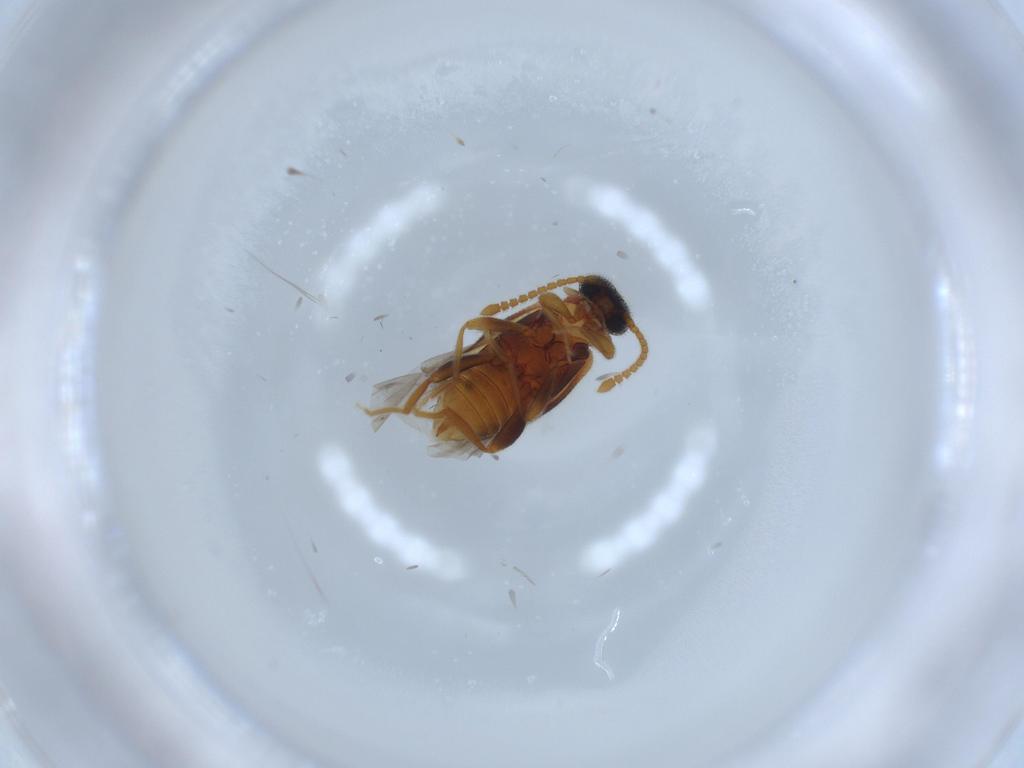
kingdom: Animalia
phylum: Arthropoda
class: Insecta
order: Coleoptera
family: Aderidae
